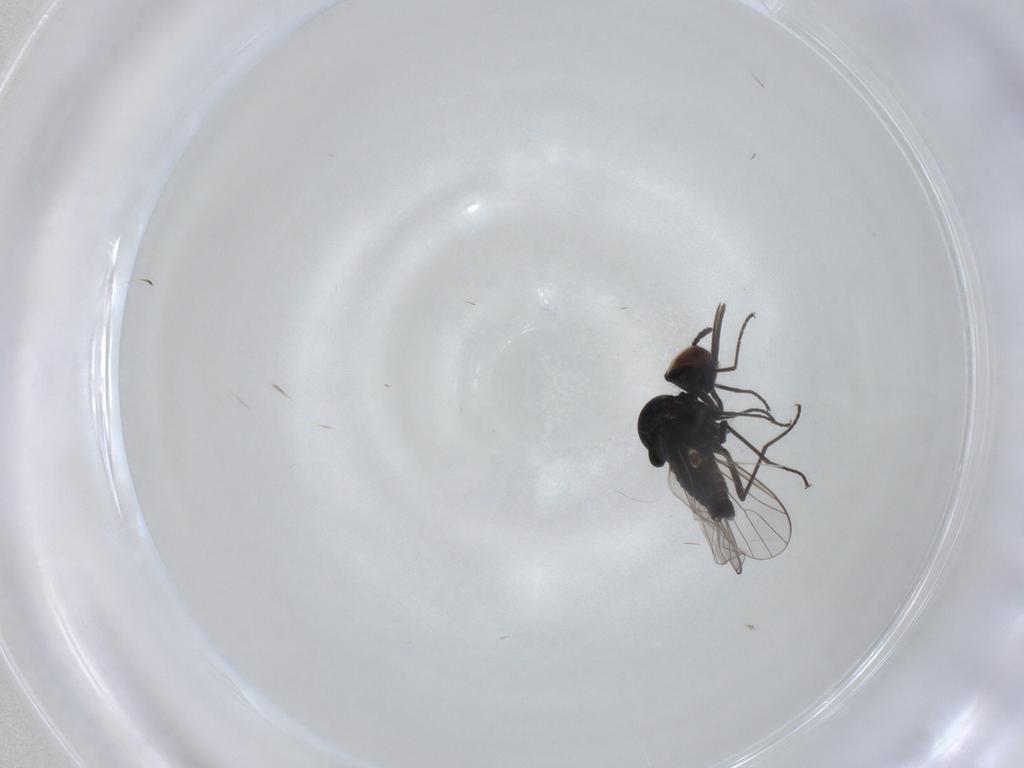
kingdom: Animalia
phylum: Arthropoda
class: Insecta
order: Diptera
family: Bombyliidae
